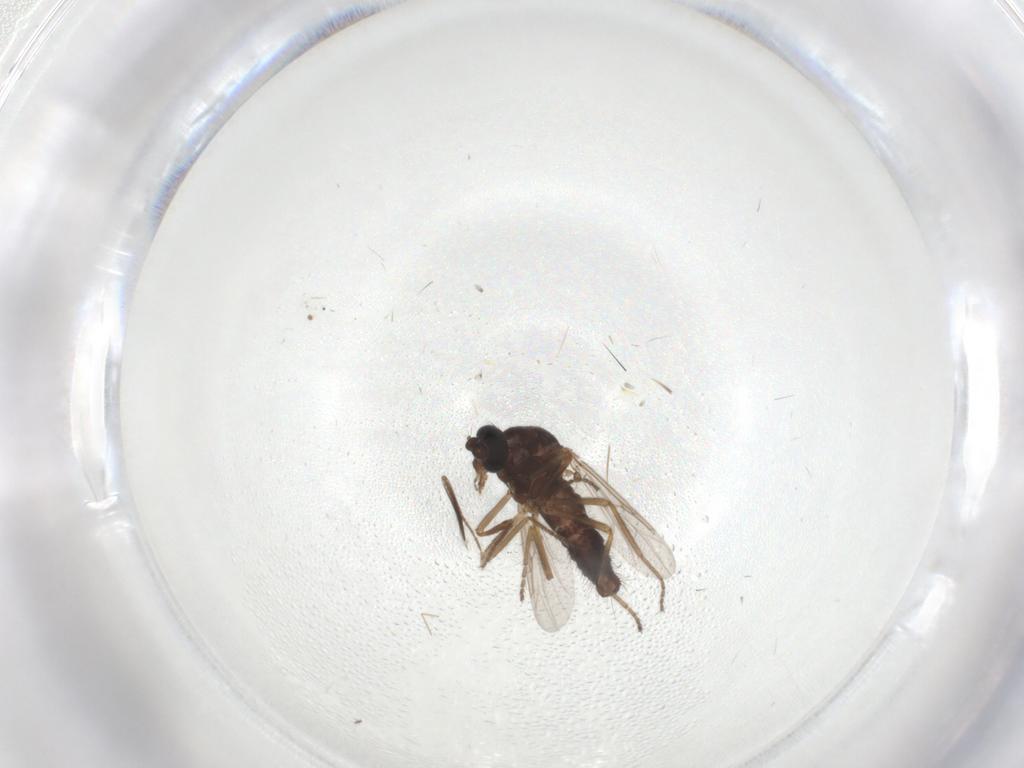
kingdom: Animalia
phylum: Arthropoda
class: Insecta
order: Diptera
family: Ceratopogonidae
